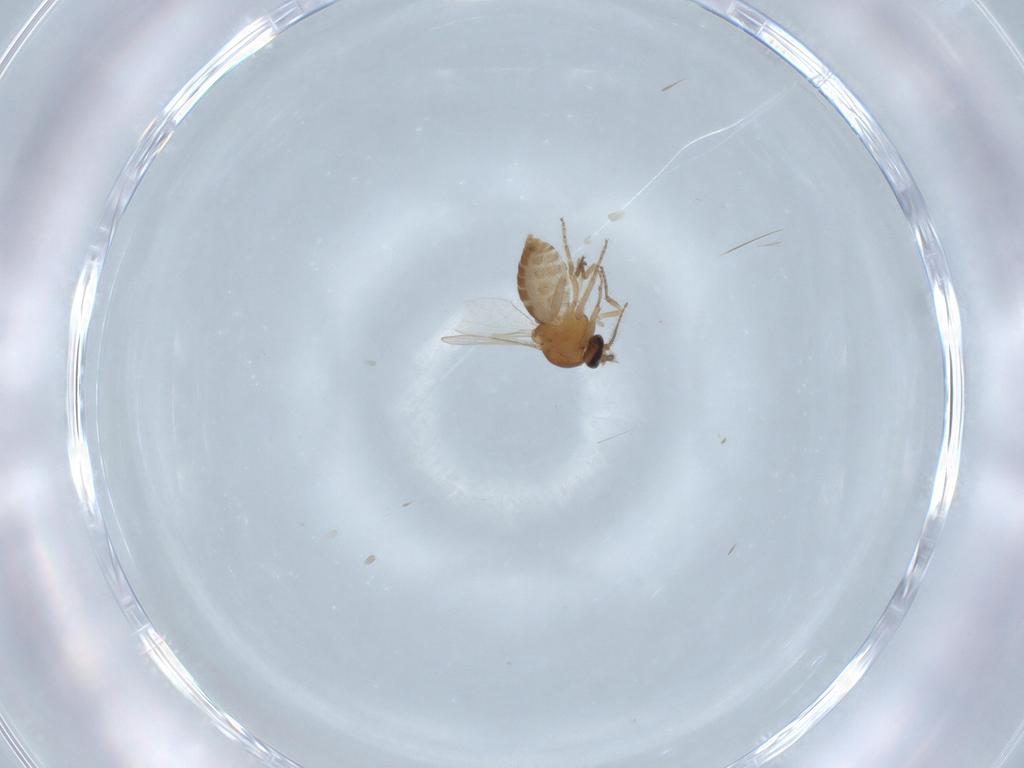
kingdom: Animalia
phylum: Arthropoda
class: Insecta
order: Diptera
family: Ceratopogonidae
